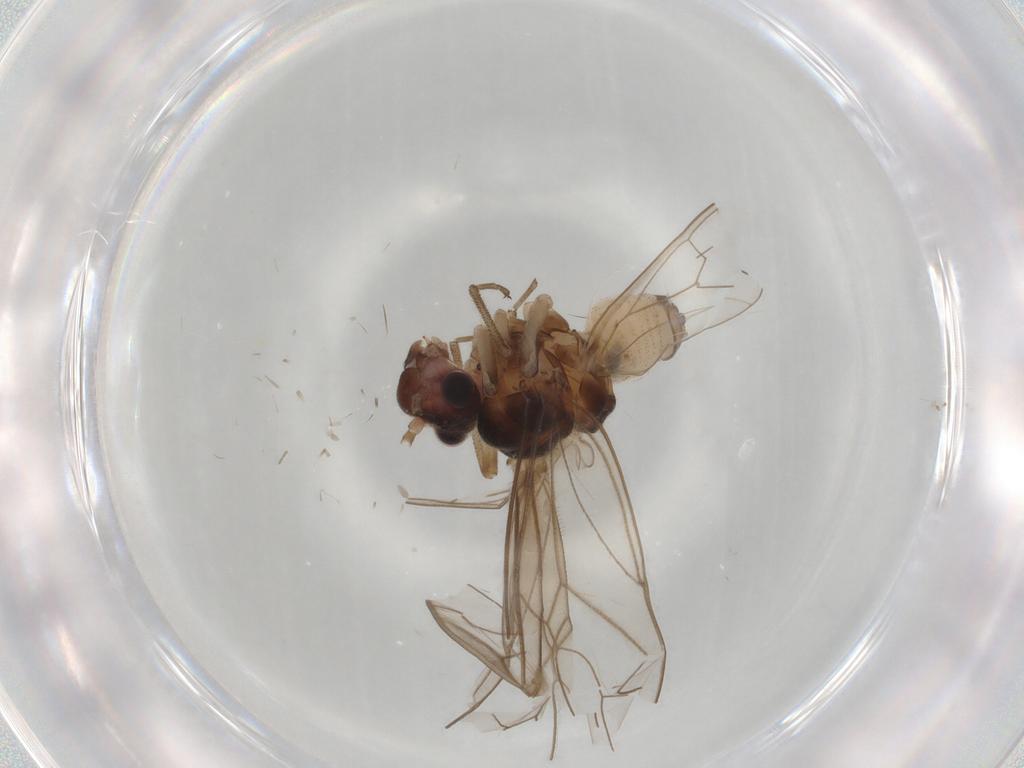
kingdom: Animalia
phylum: Arthropoda
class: Insecta
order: Psocodea
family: Stenopsocidae
